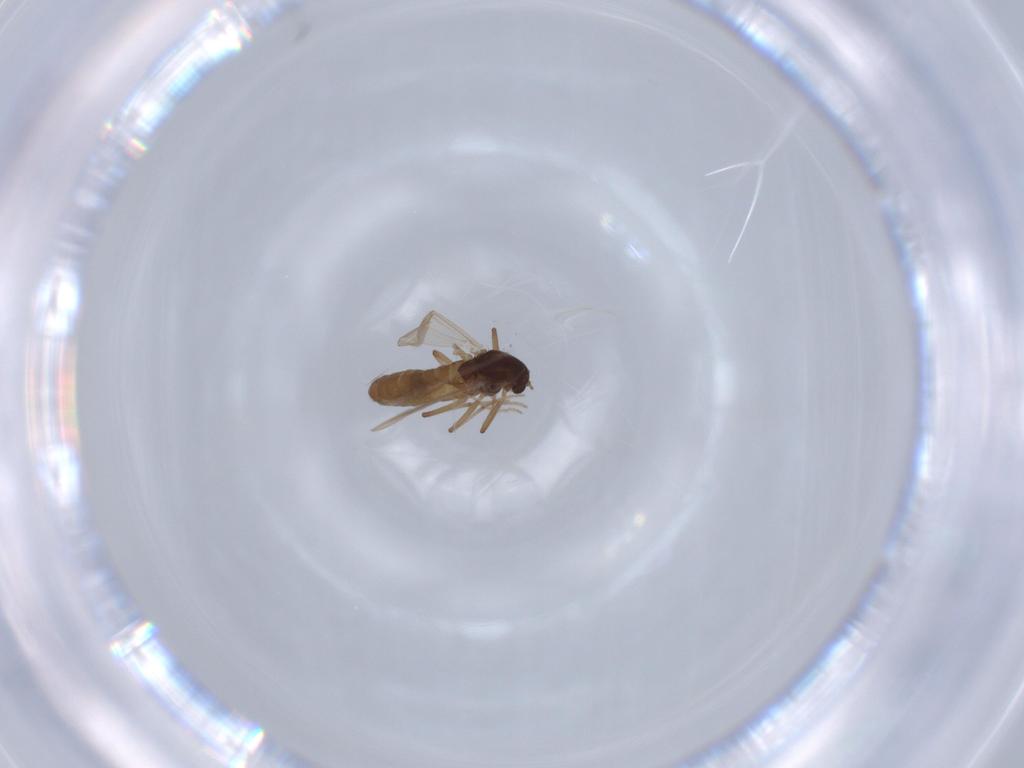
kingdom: Animalia
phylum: Arthropoda
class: Insecta
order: Diptera
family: Chironomidae
